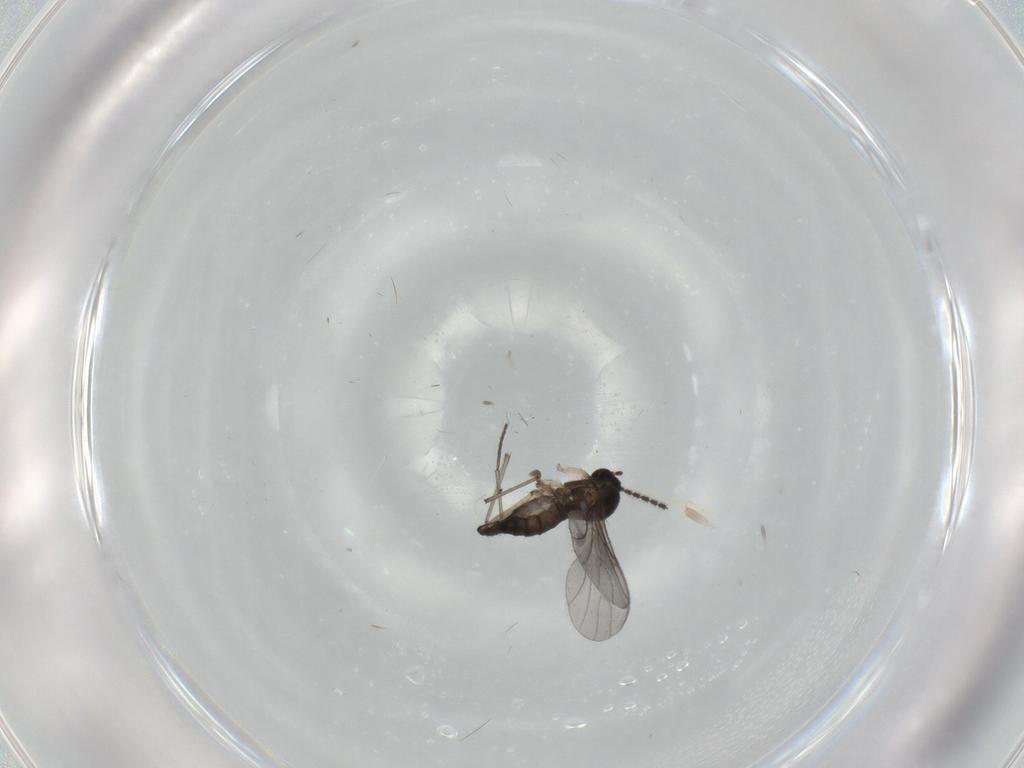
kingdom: Animalia
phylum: Arthropoda
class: Insecta
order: Diptera
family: Sciaridae
